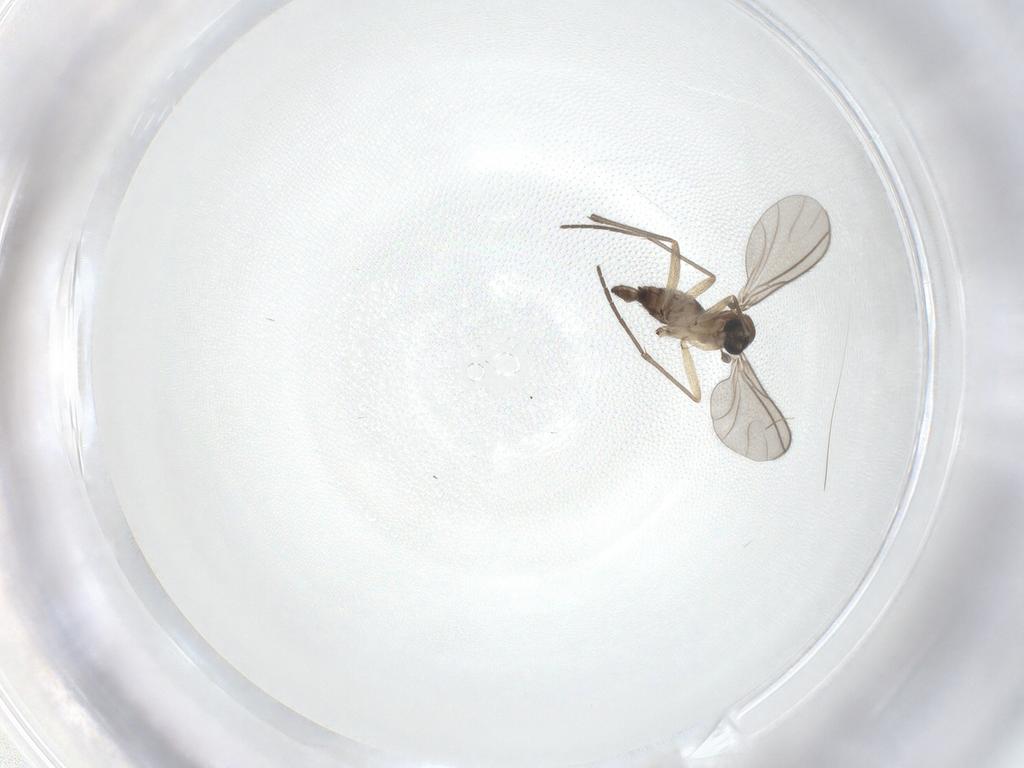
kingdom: Animalia
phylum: Arthropoda
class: Insecta
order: Diptera
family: Sciaridae
